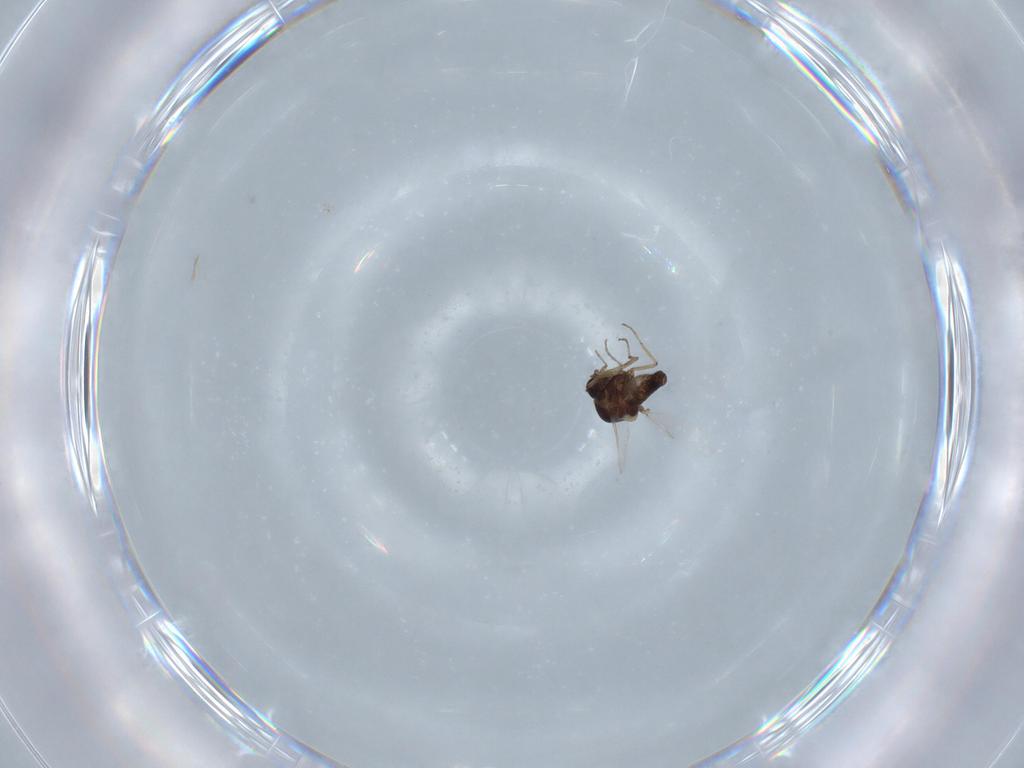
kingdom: Animalia
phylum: Arthropoda
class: Insecta
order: Diptera
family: Ceratopogonidae
